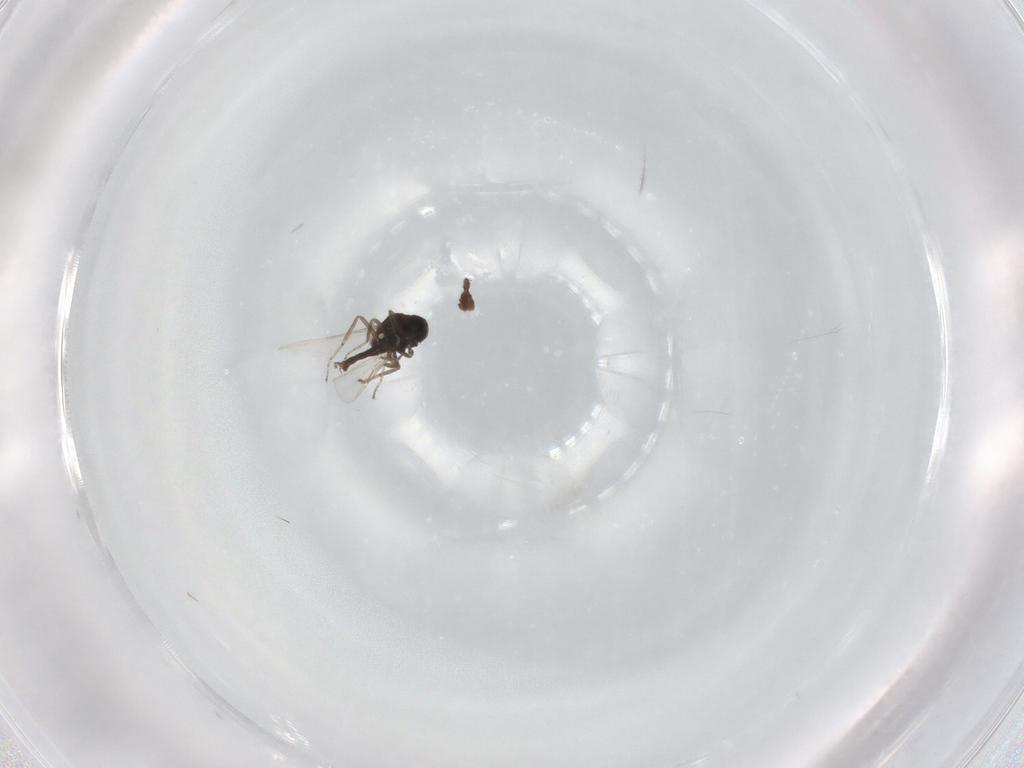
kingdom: Animalia
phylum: Arthropoda
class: Insecta
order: Diptera
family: Ceratopogonidae
